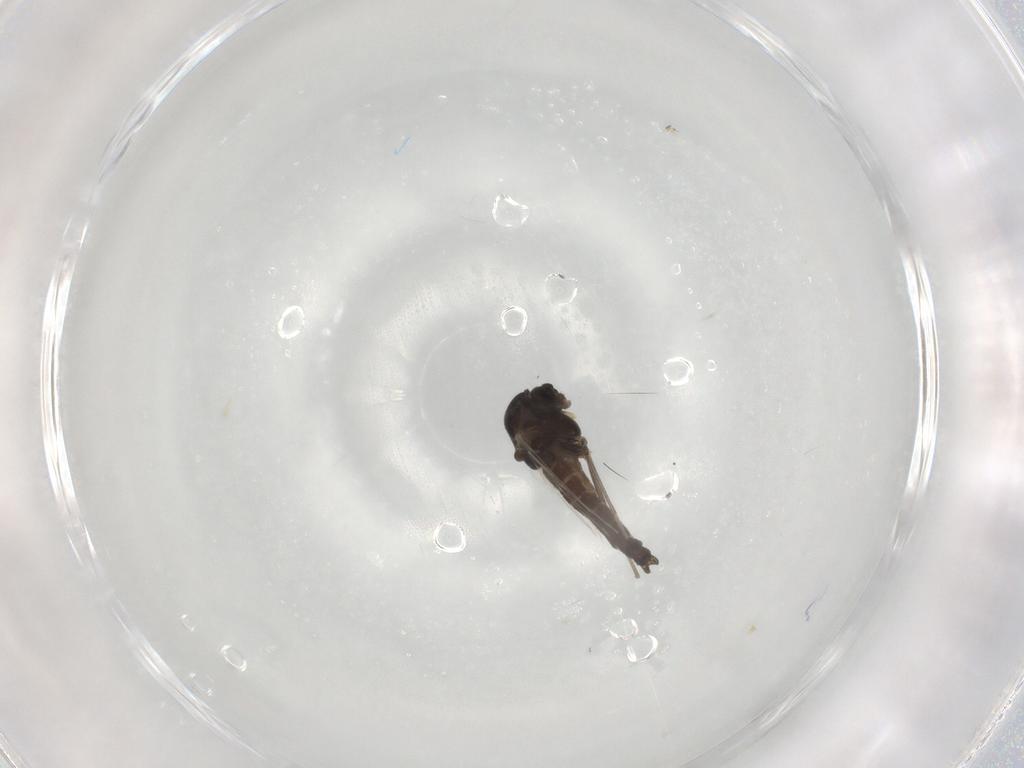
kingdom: Animalia
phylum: Arthropoda
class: Insecta
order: Diptera
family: Chironomidae
